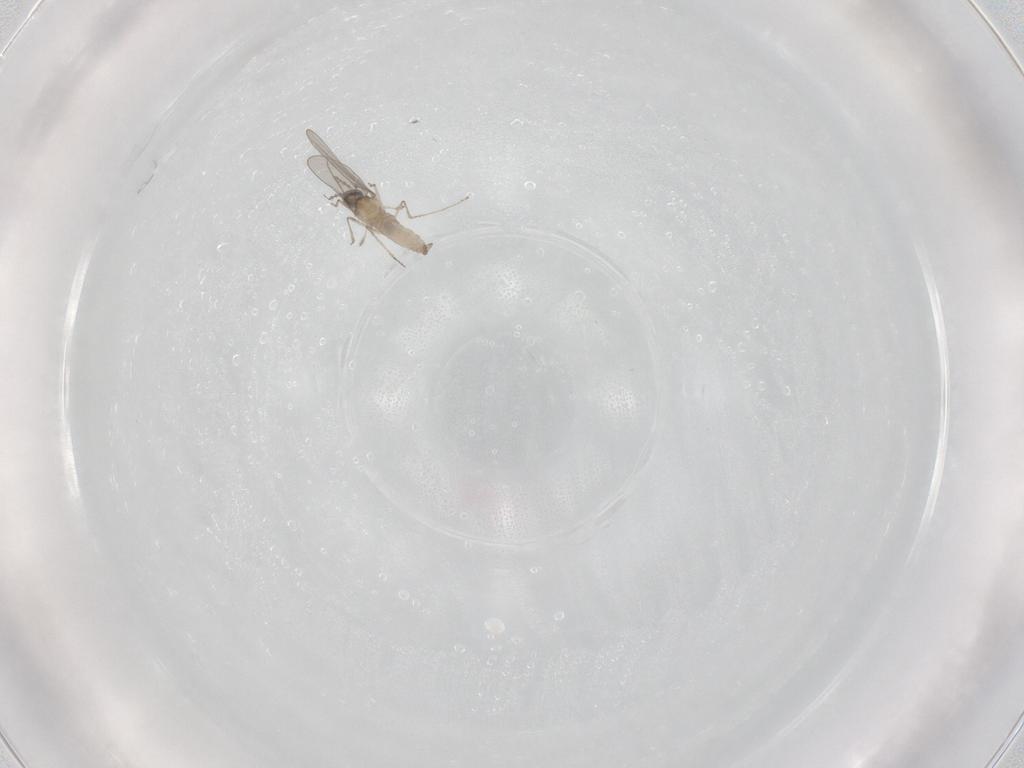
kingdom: Animalia
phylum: Arthropoda
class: Insecta
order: Diptera
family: Cecidomyiidae
